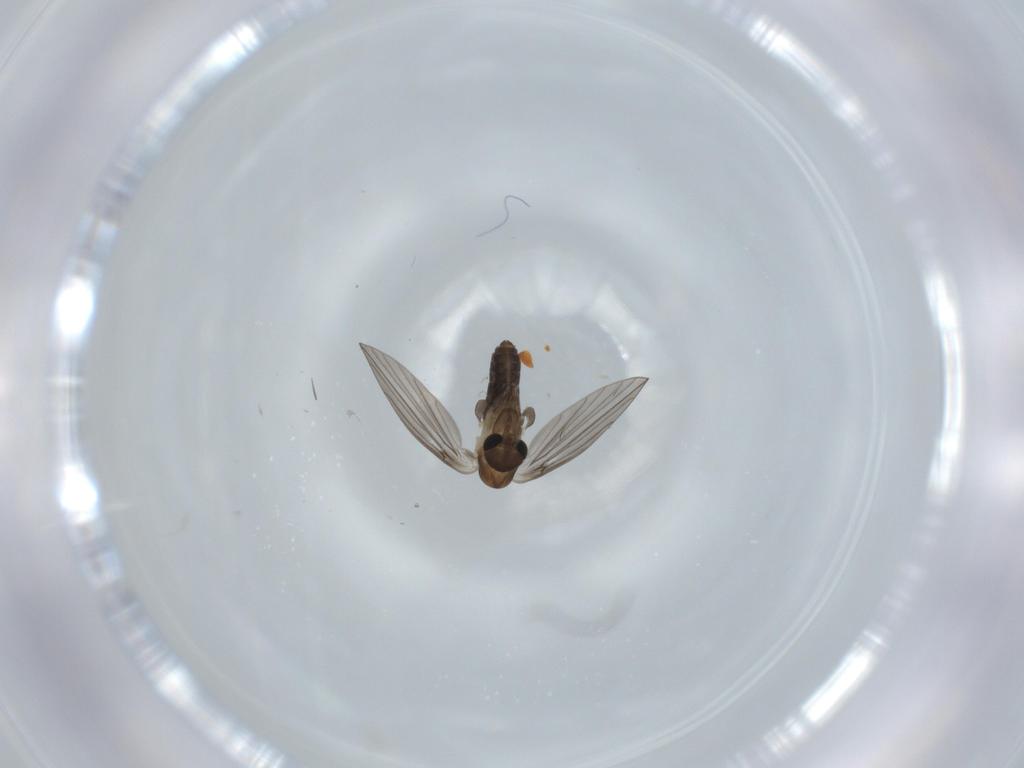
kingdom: Animalia
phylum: Arthropoda
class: Insecta
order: Diptera
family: Psychodidae
